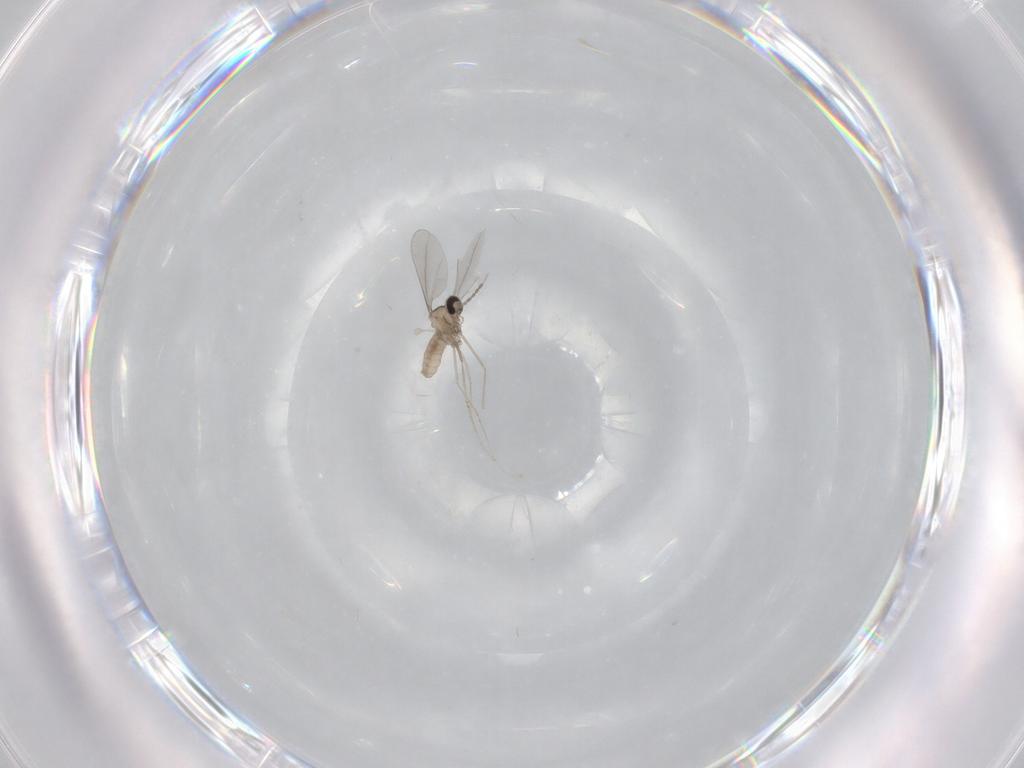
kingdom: Animalia
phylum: Arthropoda
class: Insecta
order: Diptera
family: Cecidomyiidae
